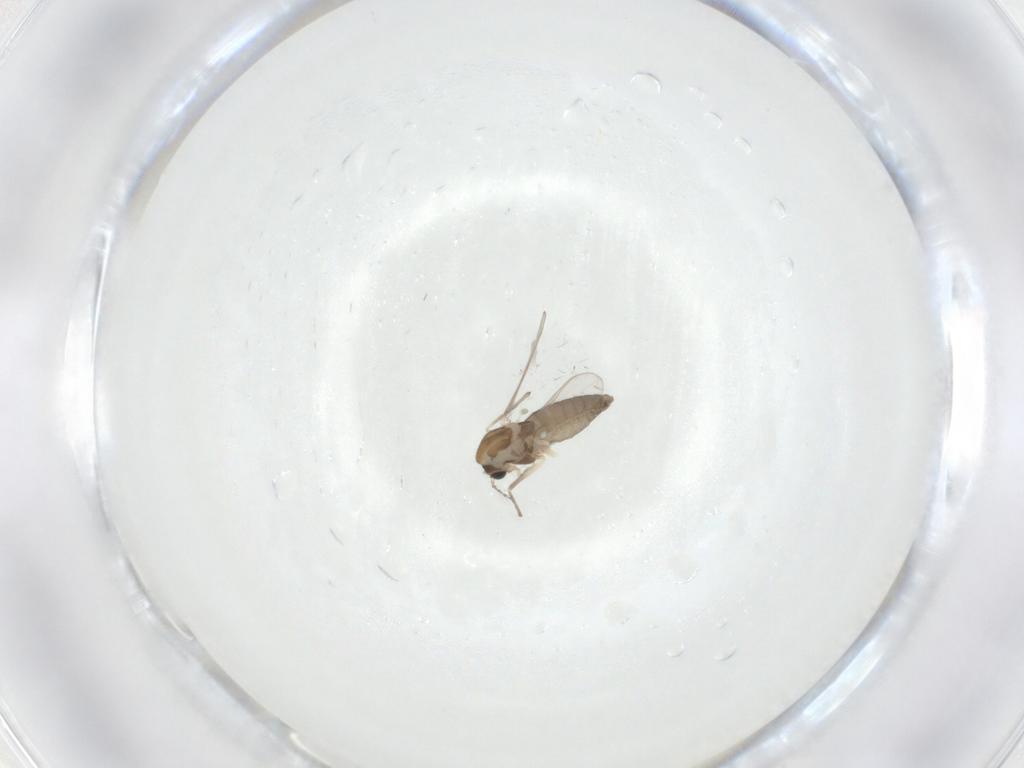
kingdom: Animalia
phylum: Arthropoda
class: Insecta
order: Diptera
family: Chironomidae
